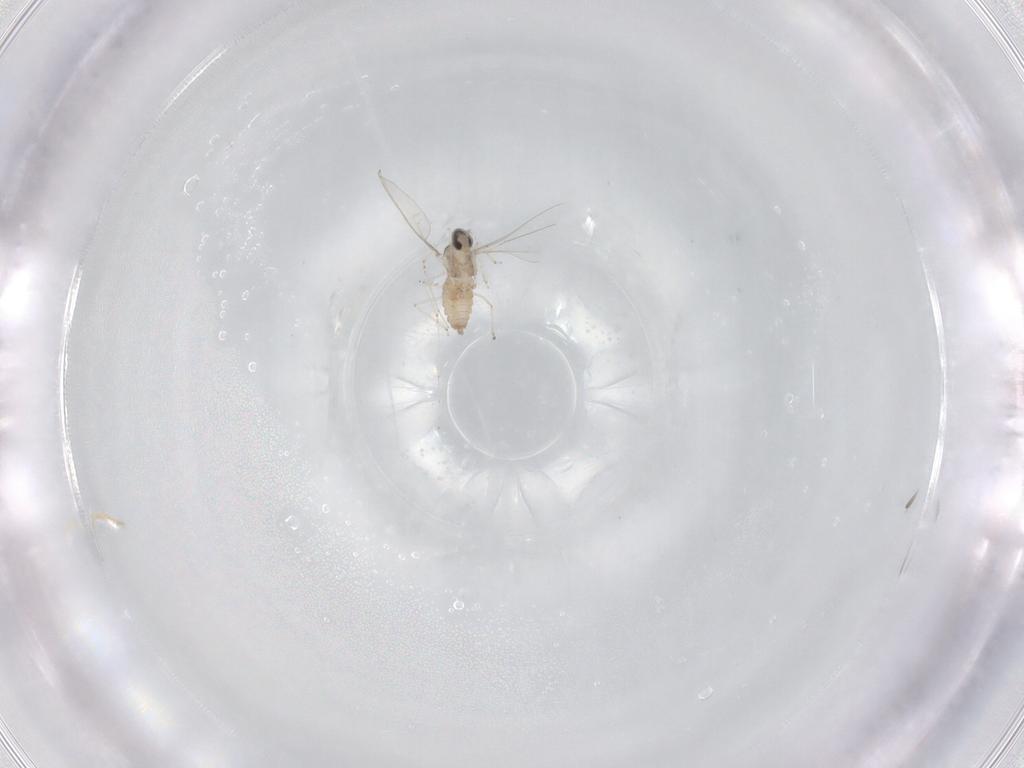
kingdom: Animalia
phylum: Arthropoda
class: Insecta
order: Diptera
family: Cecidomyiidae
